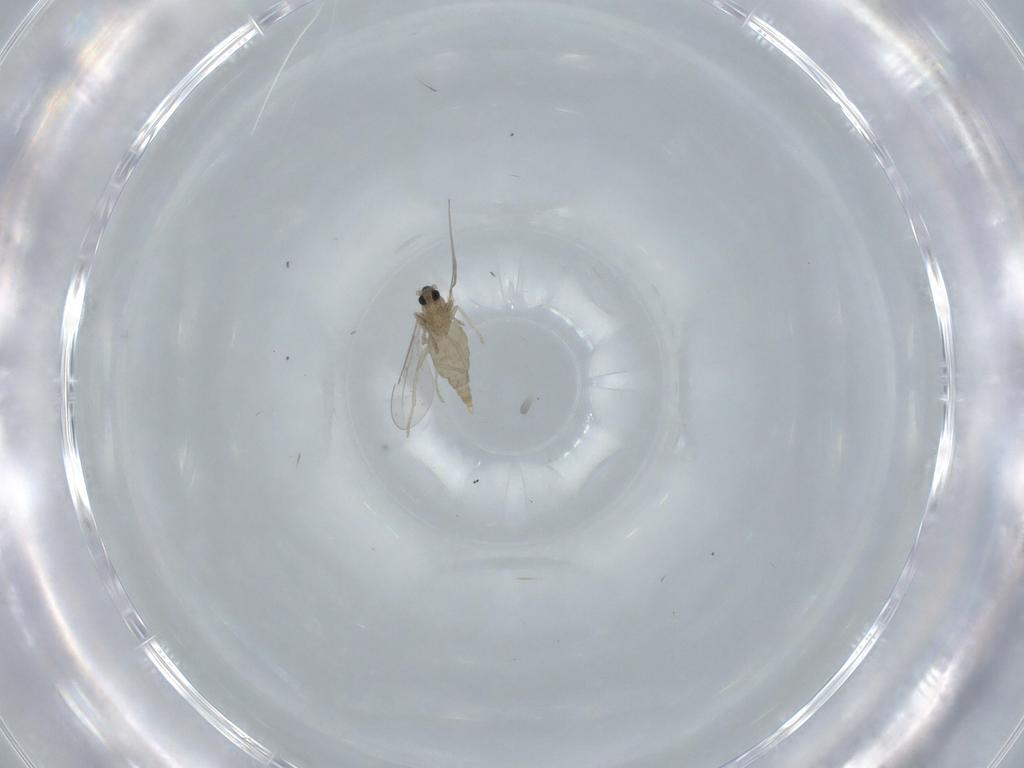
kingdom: Animalia
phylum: Arthropoda
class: Insecta
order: Diptera
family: Cecidomyiidae
